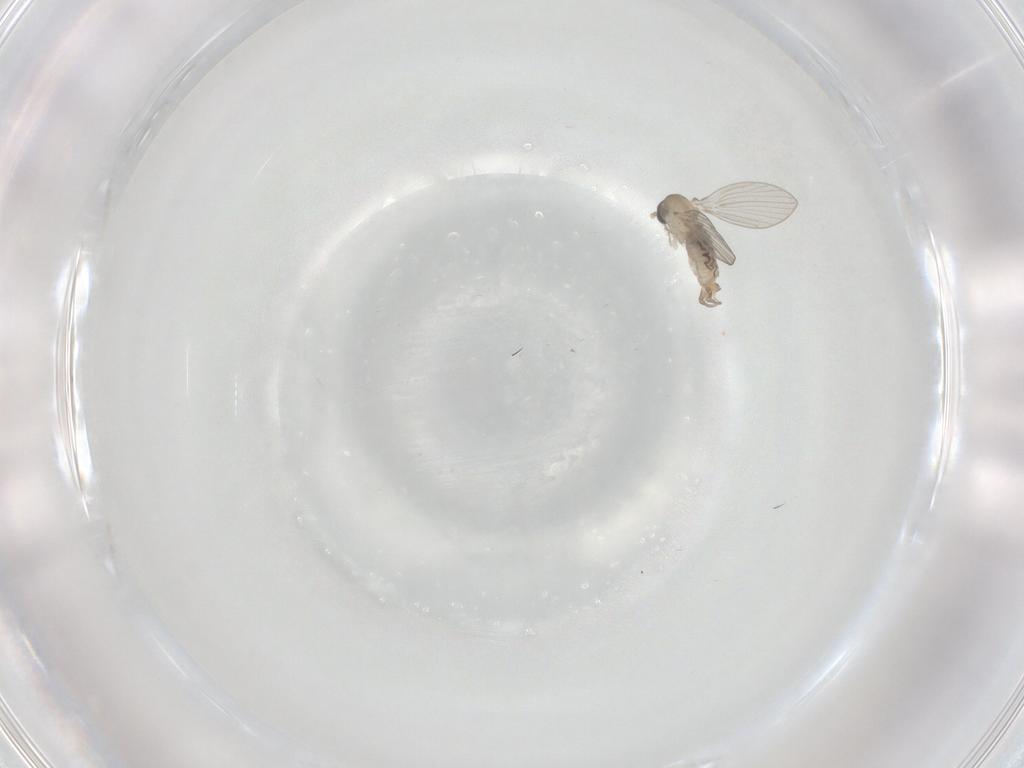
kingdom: Animalia
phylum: Arthropoda
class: Insecta
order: Diptera
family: Psychodidae
